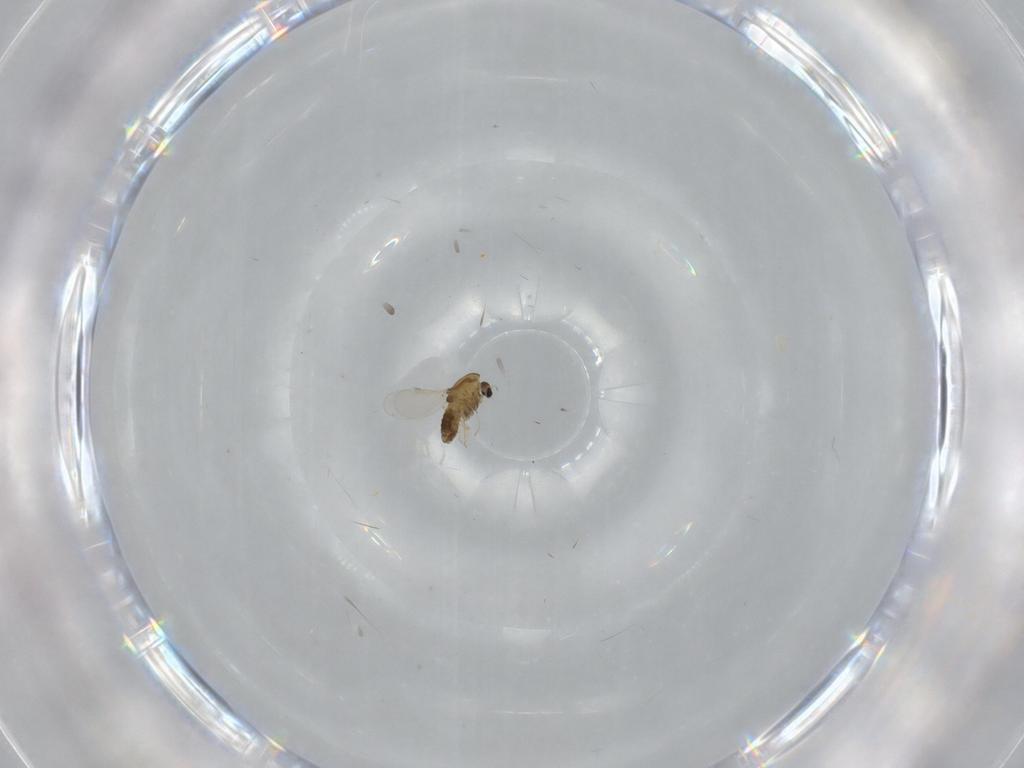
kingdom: Animalia
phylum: Arthropoda
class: Insecta
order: Diptera
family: Chironomidae
